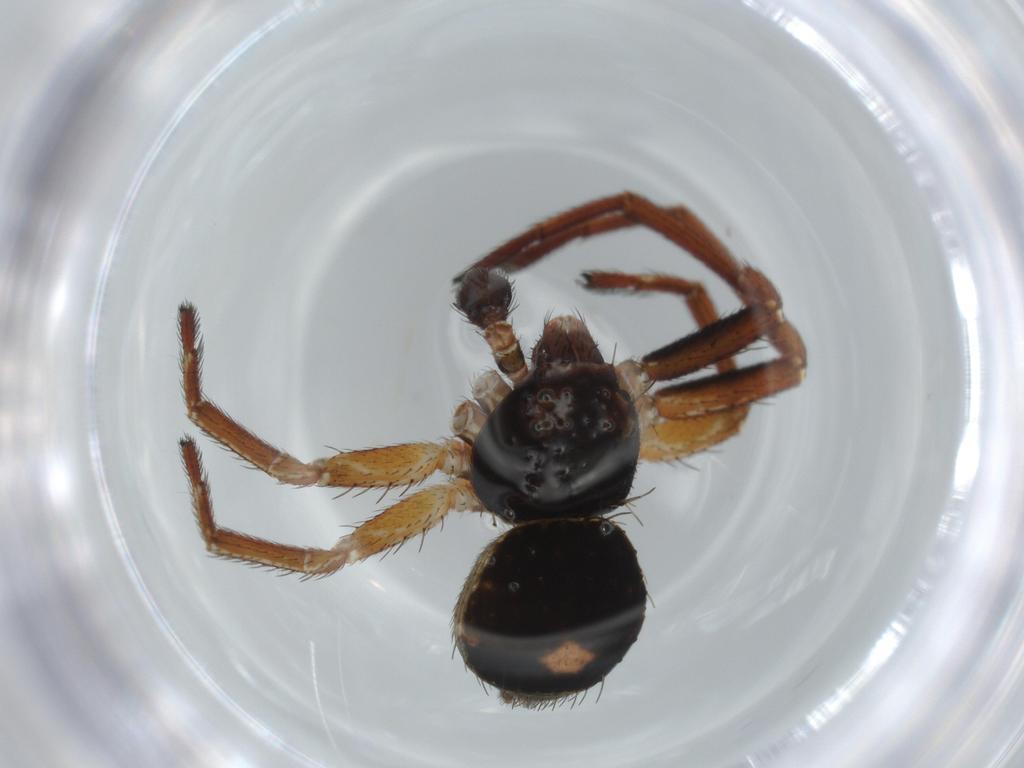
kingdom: Animalia
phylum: Arthropoda
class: Arachnida
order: Araneae
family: Thomisidae
